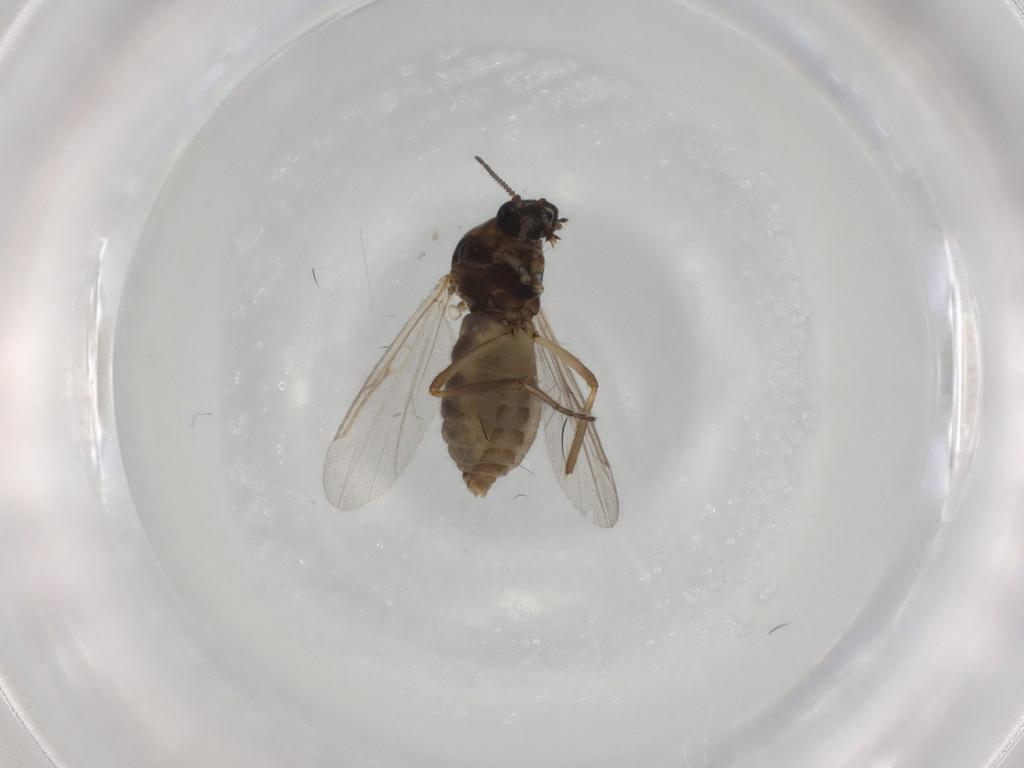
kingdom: Animalia
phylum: Arthropoda
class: Insecta
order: Diptera
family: Ceratopogonidae
